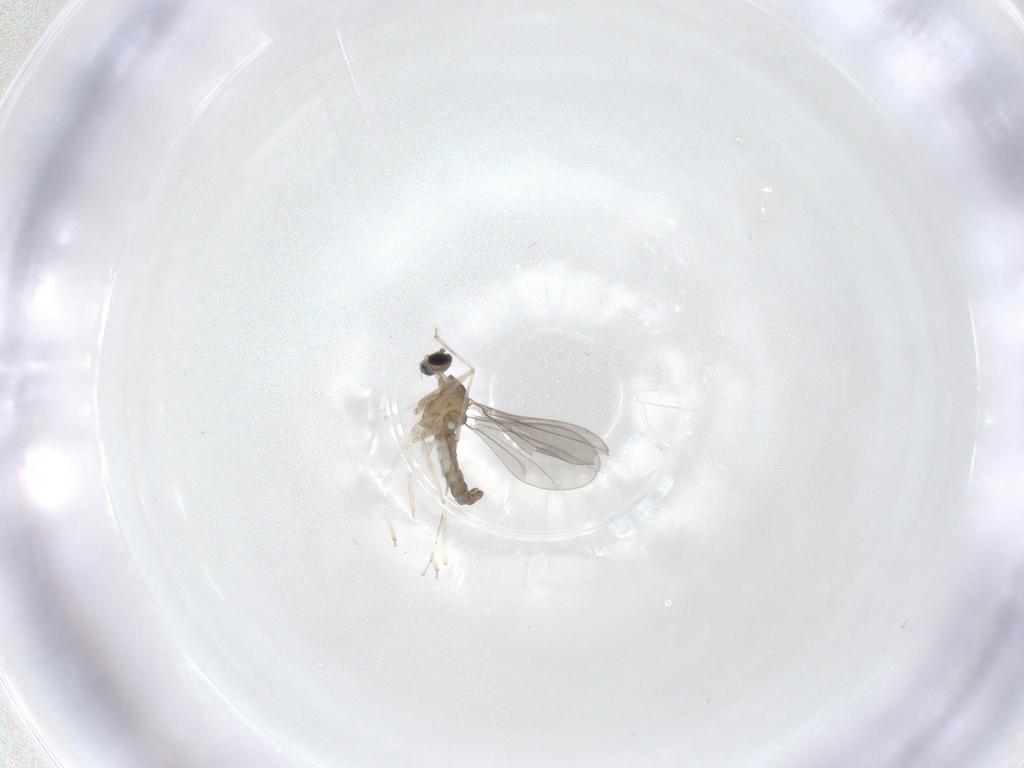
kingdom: Animalia
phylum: Arthropoda
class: Insecta
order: Diptera
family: Cecidomyiidae
